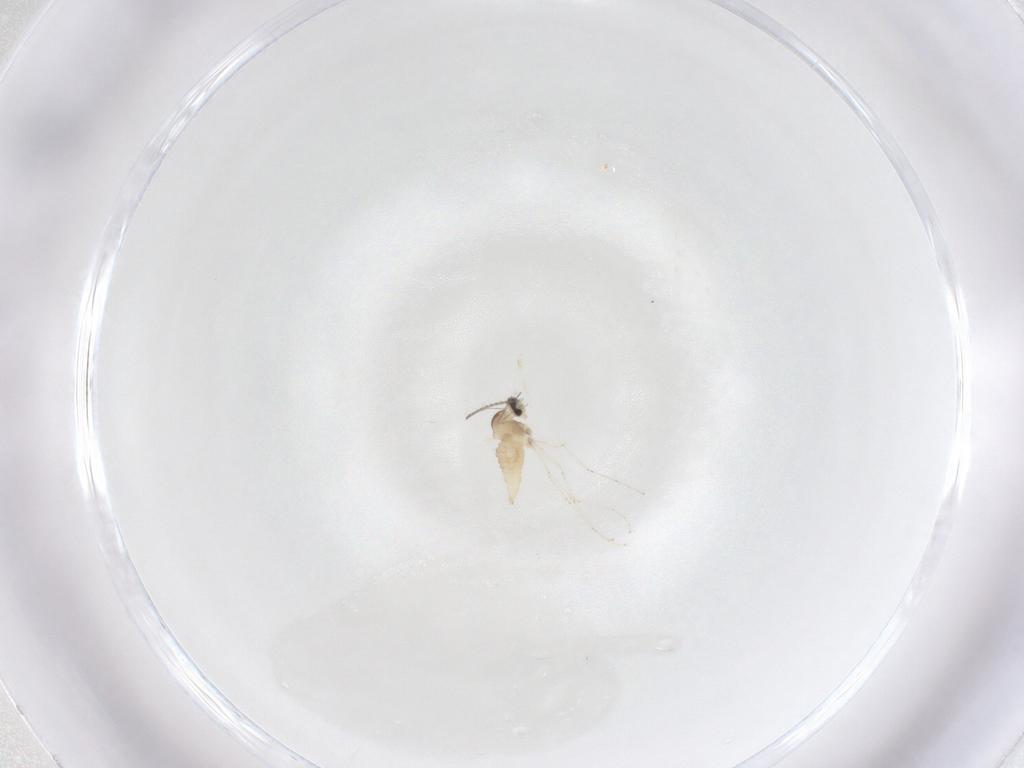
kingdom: Animalia
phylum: Arthropoda
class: Insecta
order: Diptera
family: Cecidomyiidae
